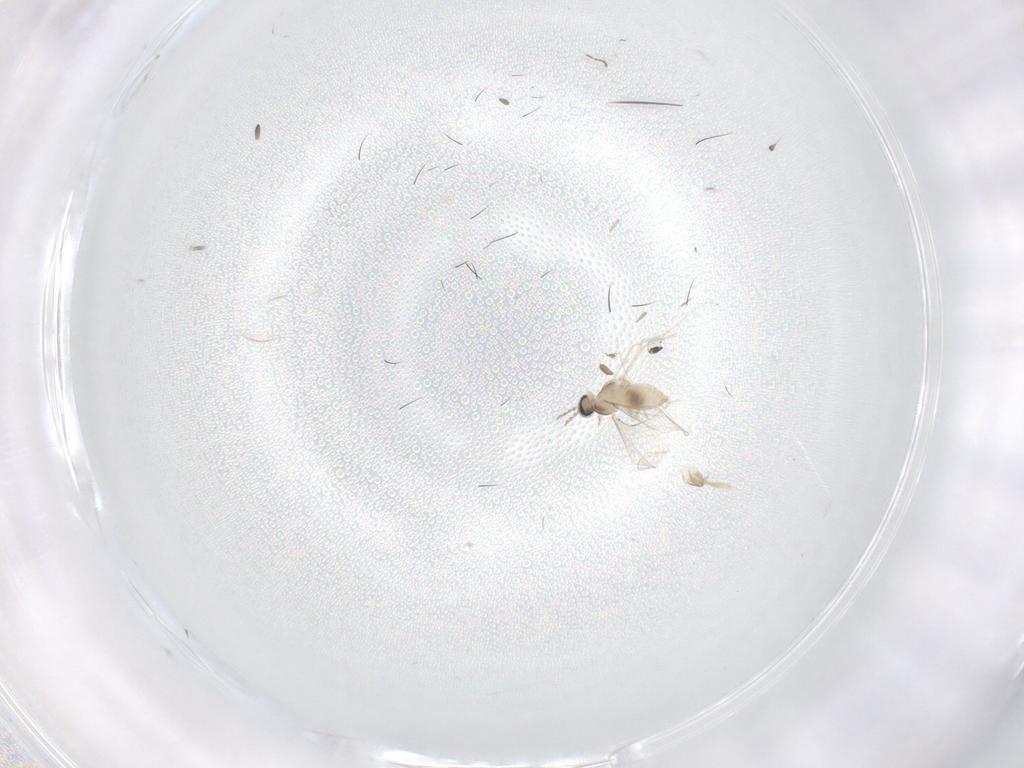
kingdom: Animalia
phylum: Arthropoda
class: Insecta
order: Diptera
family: Cecidomyiidae
